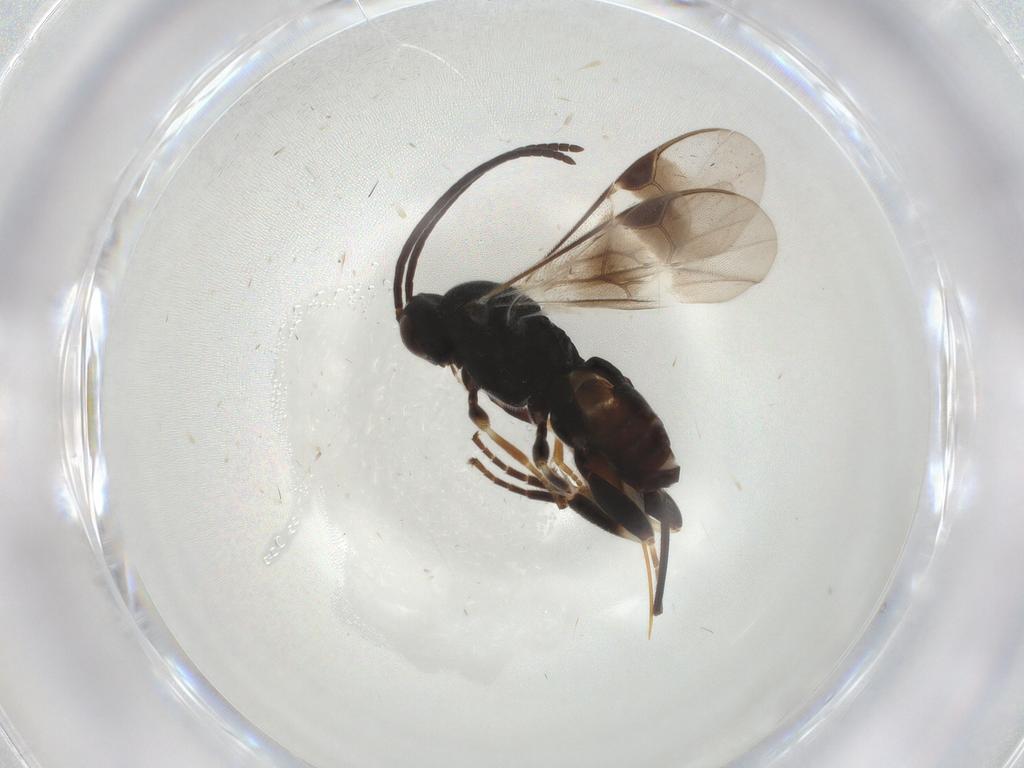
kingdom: Animalia
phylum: Arthropoda
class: Insecta
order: Hymenoptera
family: Braconidae
